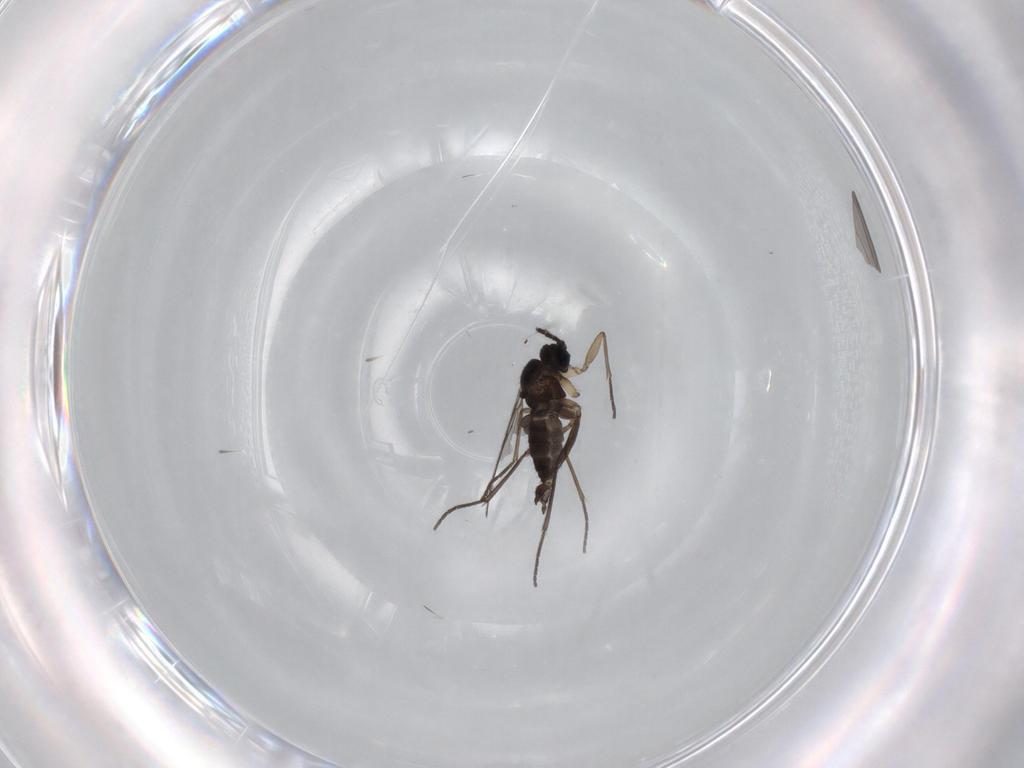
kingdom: Animalia
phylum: Arthropoda
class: Insecta
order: Diptera
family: Sciaridae
